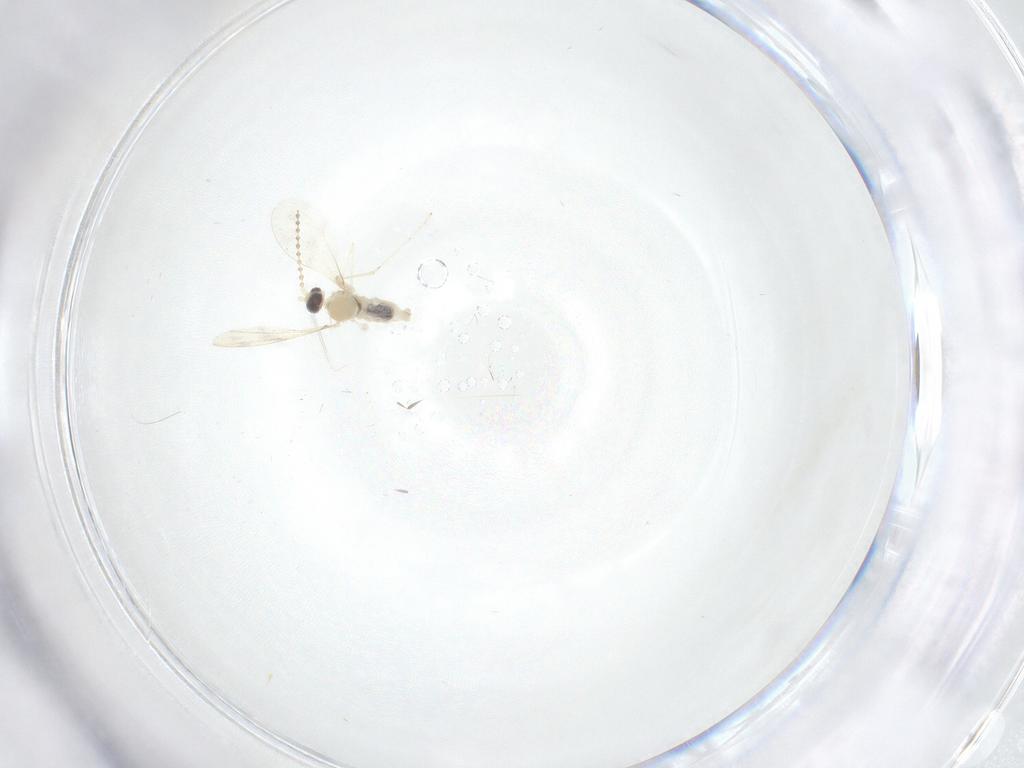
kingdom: Animalia
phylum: Arthropoda
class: Insecta
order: Diptera
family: Cecidomyiidae
